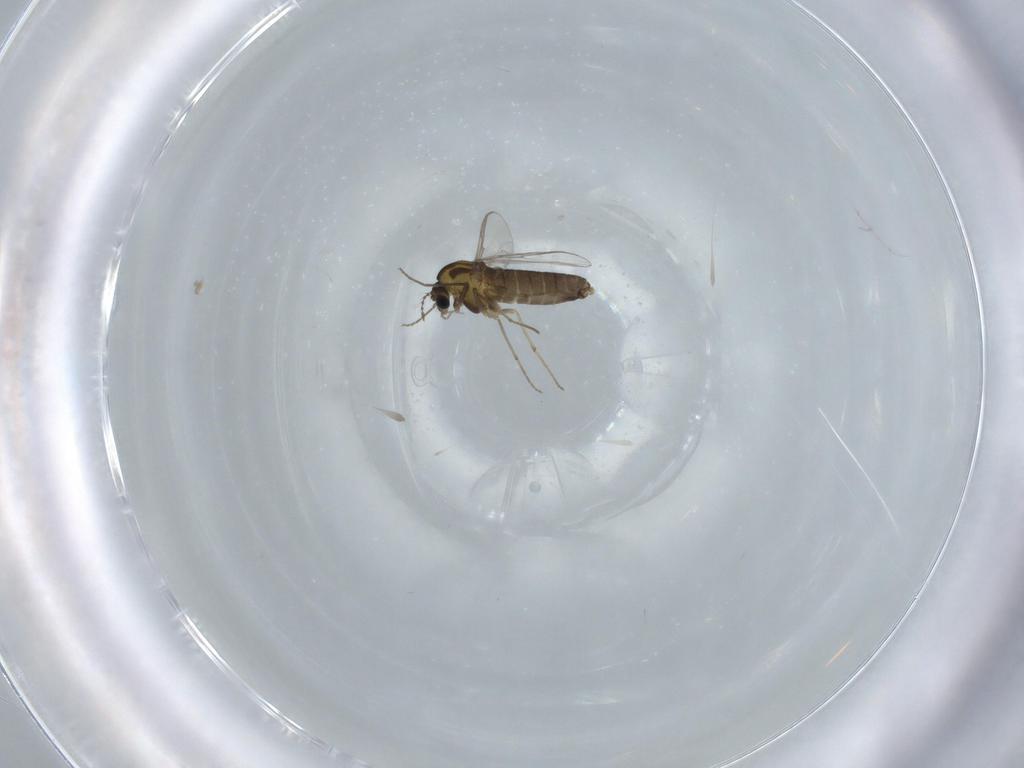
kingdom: Animalia
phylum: Arthropoda
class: Insecta
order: Diptera
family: Chironomidae
